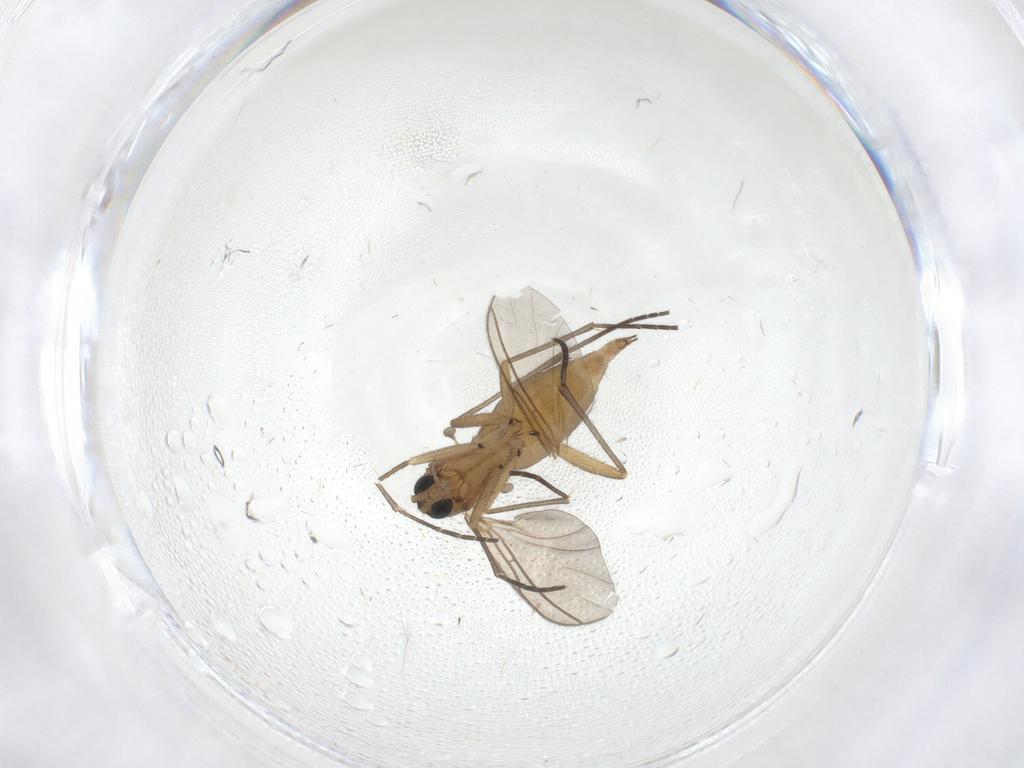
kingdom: Animalia
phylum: Arthropoda
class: Insecta
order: Diptera
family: Sciaridae
